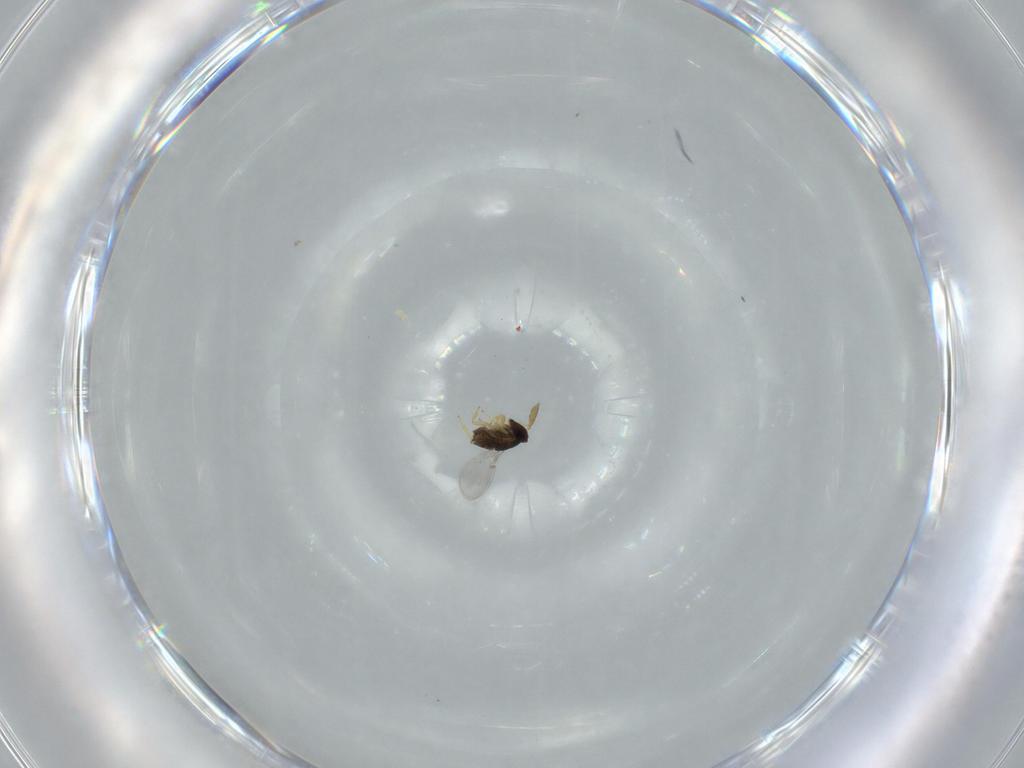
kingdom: Animalia
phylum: Arthropoda
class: Insecta
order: Hymenoptera
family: Encyrtidae
